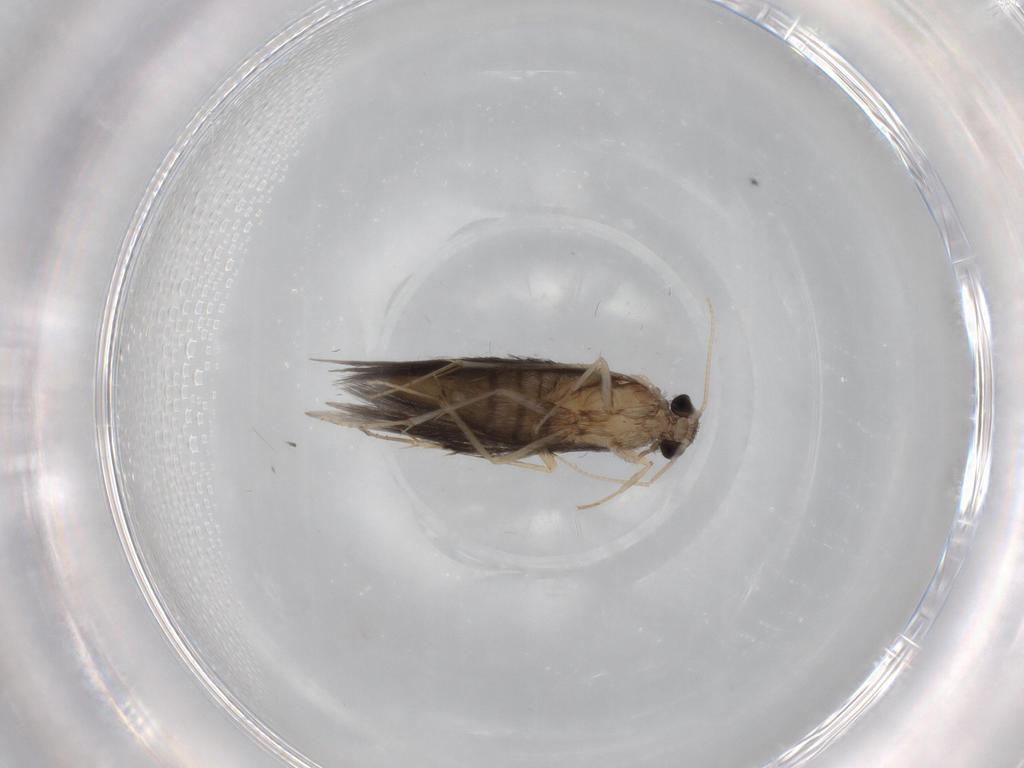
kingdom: Animalia
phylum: Arthropoda
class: Insecta
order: Trichoptera
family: Hydroptilidae
